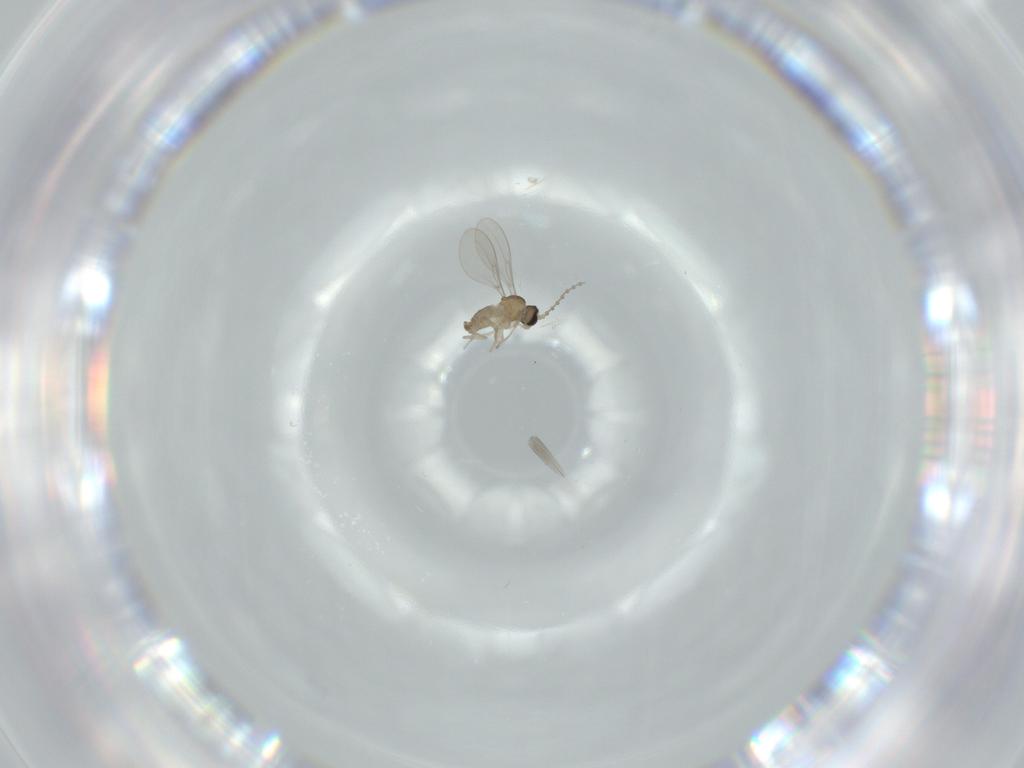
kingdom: Animalia
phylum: Arthropoda
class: Insecta
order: Diptera
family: Cecidomyiidae
